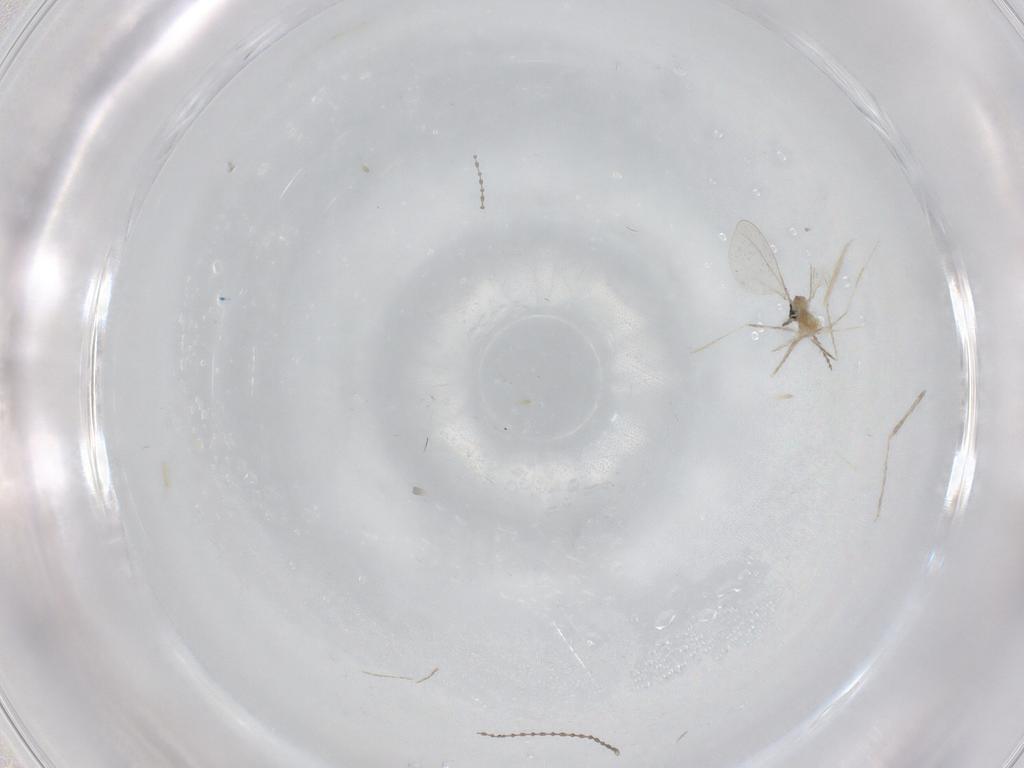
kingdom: Animalia
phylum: Arthropoda
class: Insecta
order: Diptera
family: Cecidomyiidae
